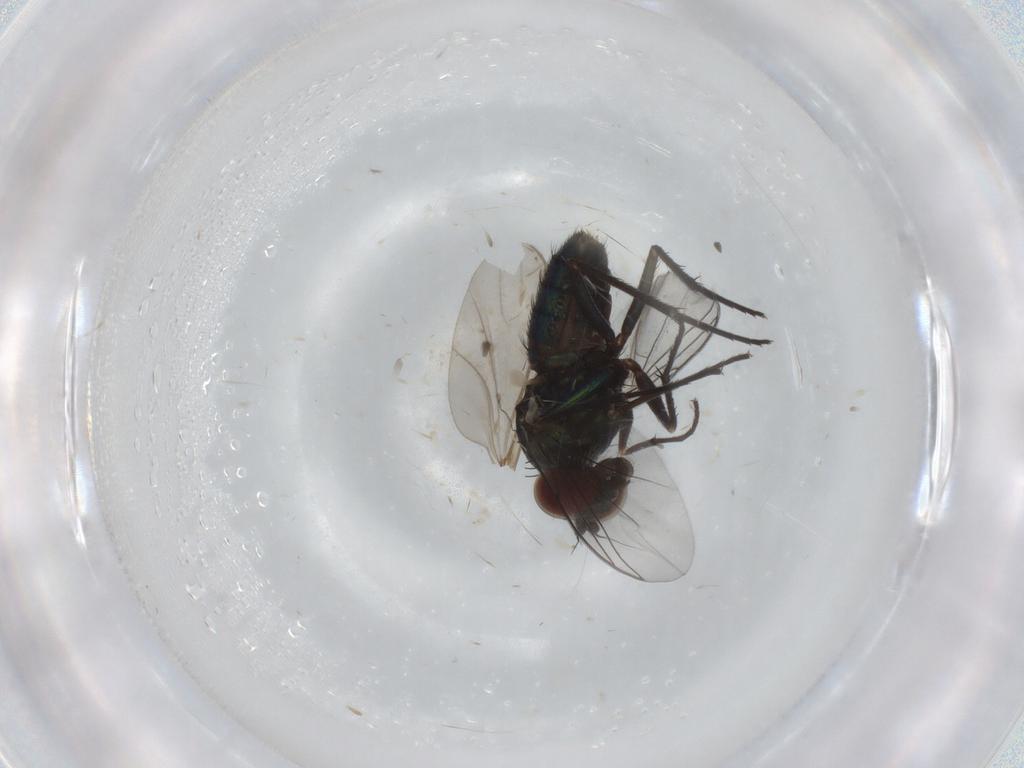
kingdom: Animalia
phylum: Arthropoda
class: Insecta
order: Diptera
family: Dolichopodidae
